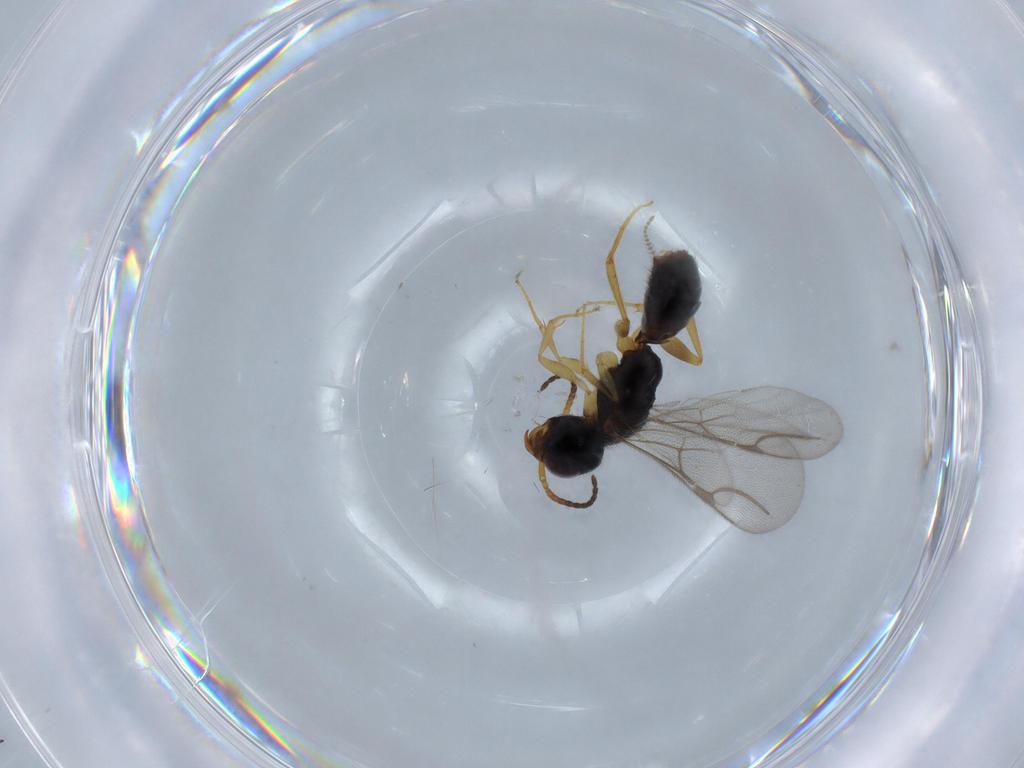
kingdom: Animalia
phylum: Arthropoda
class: Insecta
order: Hymenoptera
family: Bethylidae
